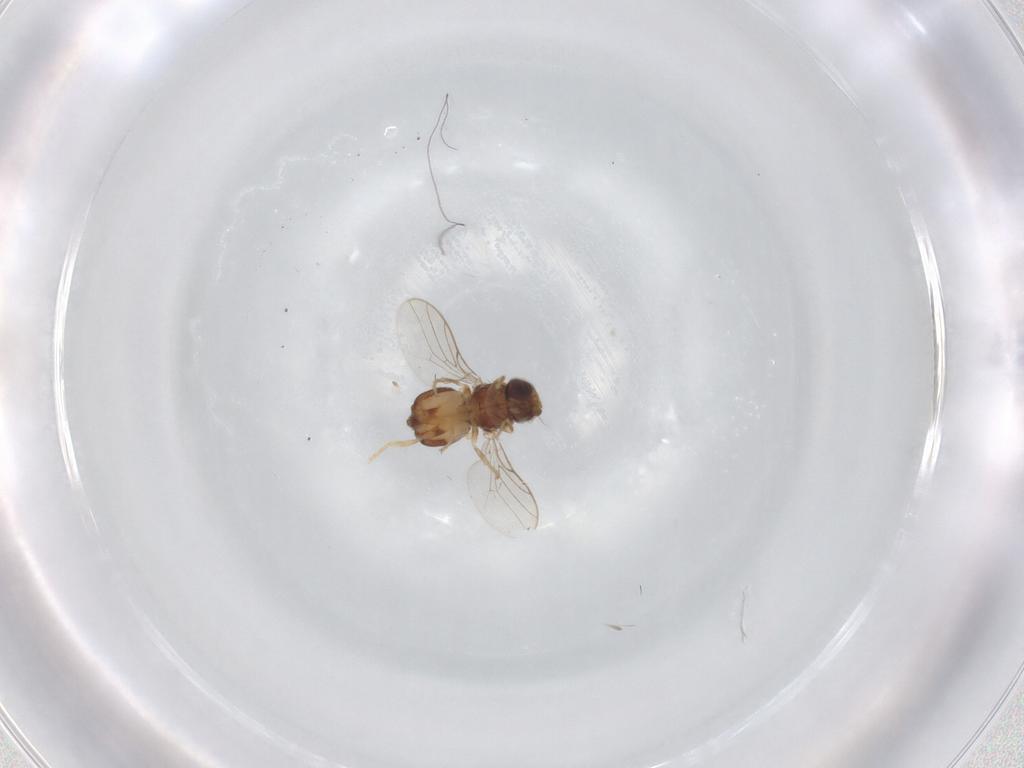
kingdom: Animalia
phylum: Arthropoda
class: Insecta
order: Diptera
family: Chloropidae
